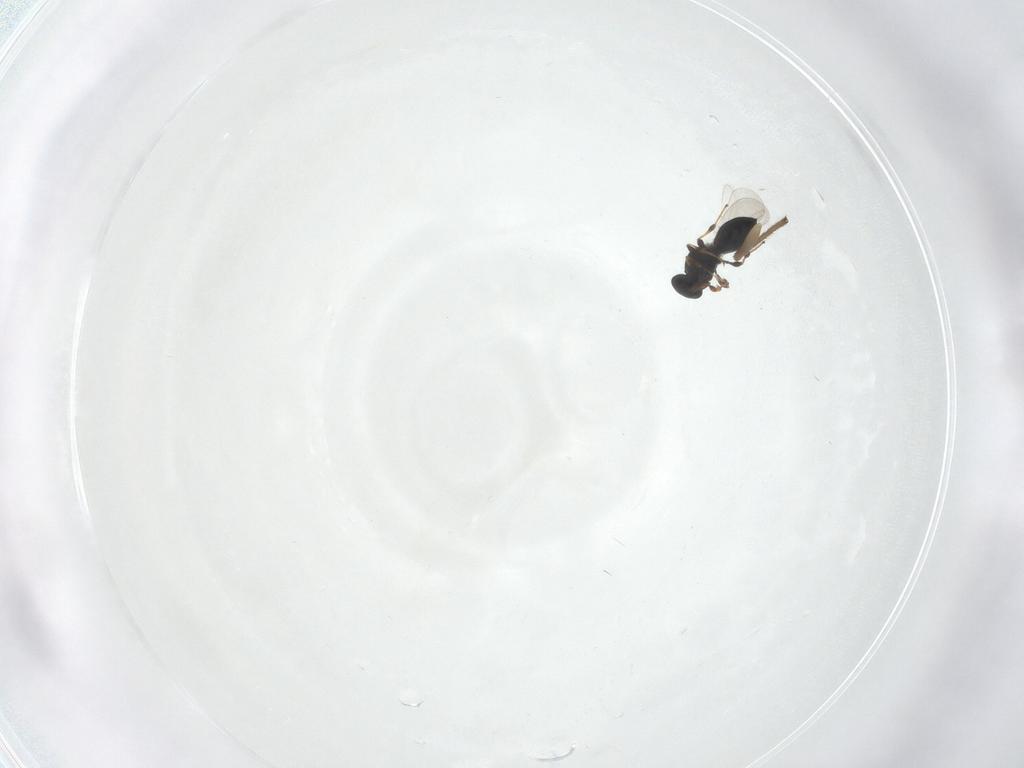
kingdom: Animalia
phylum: Arthropoda
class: Insecta
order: Hymenoptera
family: Platygastridae
